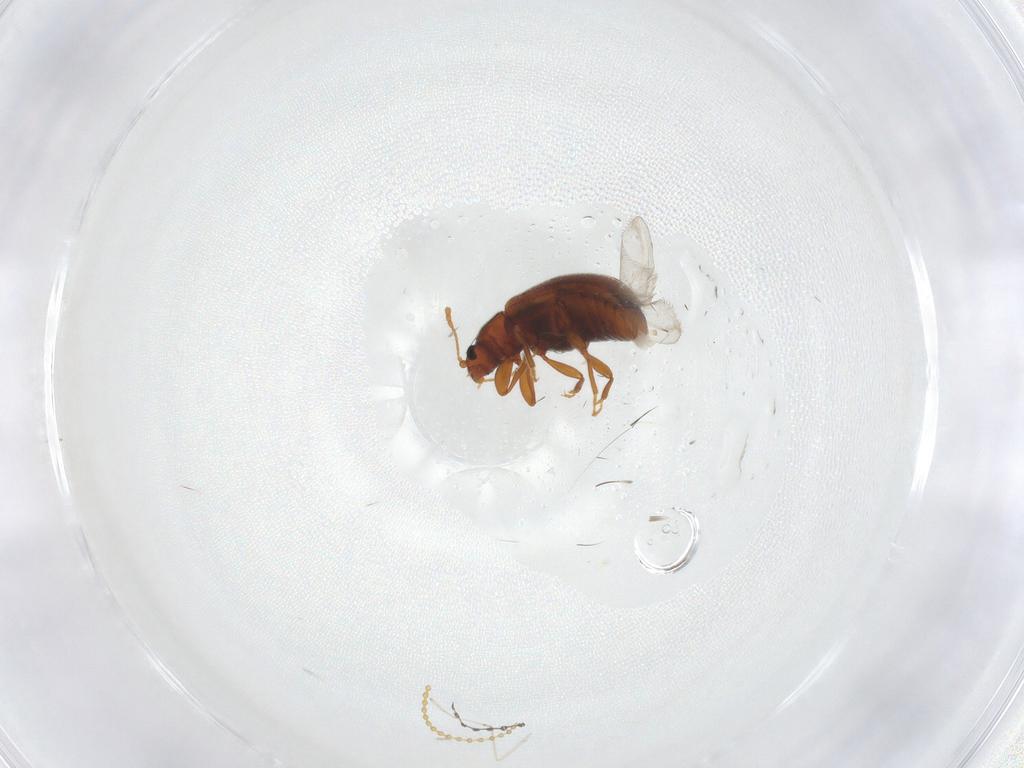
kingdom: Animalia
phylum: Arthropoda
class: Insecta
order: Coleoptera
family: Latridiidae
